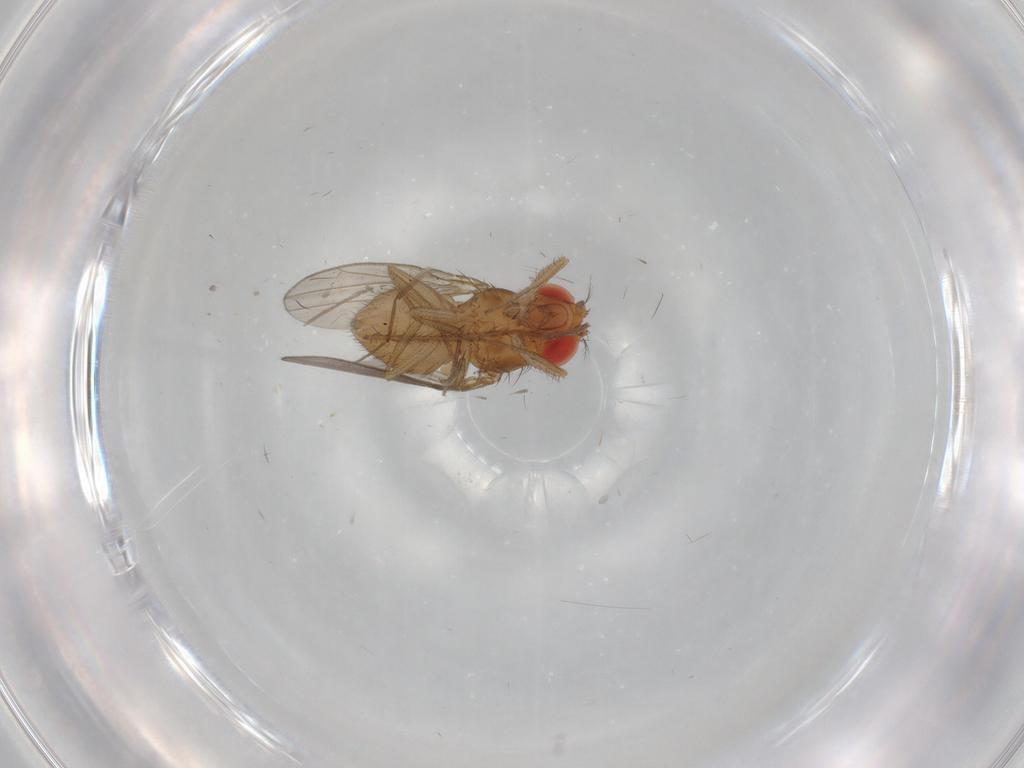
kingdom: Animalia
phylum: Arthropoda
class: Insecta
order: Diptera
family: Drosophilidae
